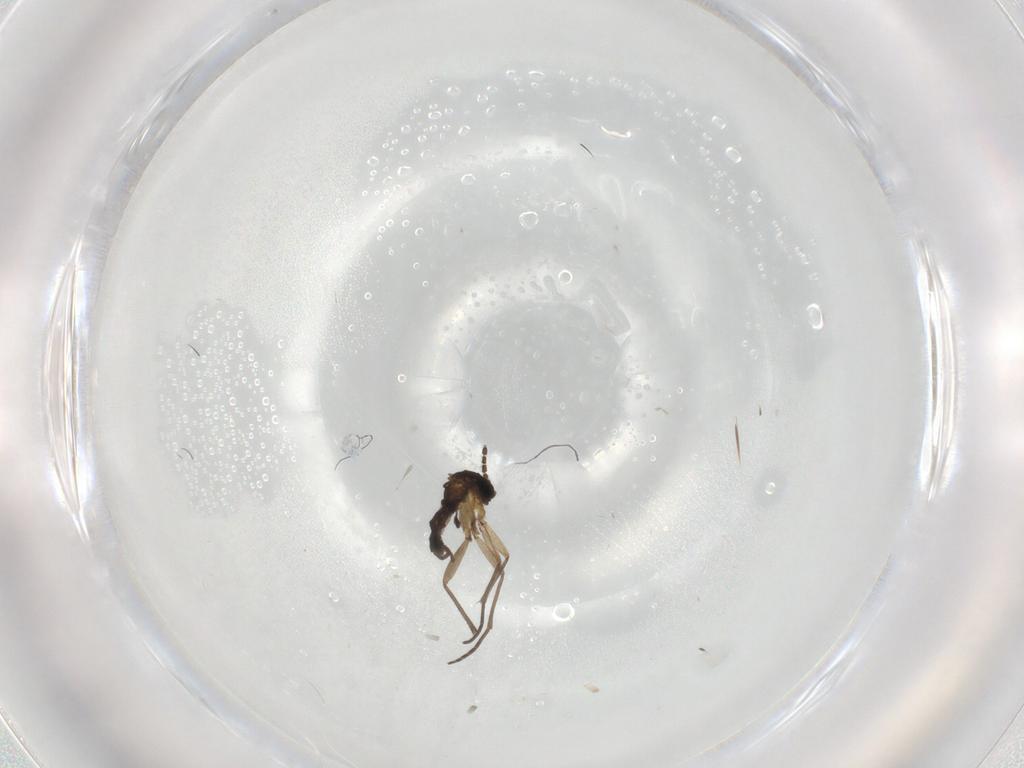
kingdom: Animalia
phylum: Arthropoda
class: Insecta
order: Diptera
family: Sciaridae
